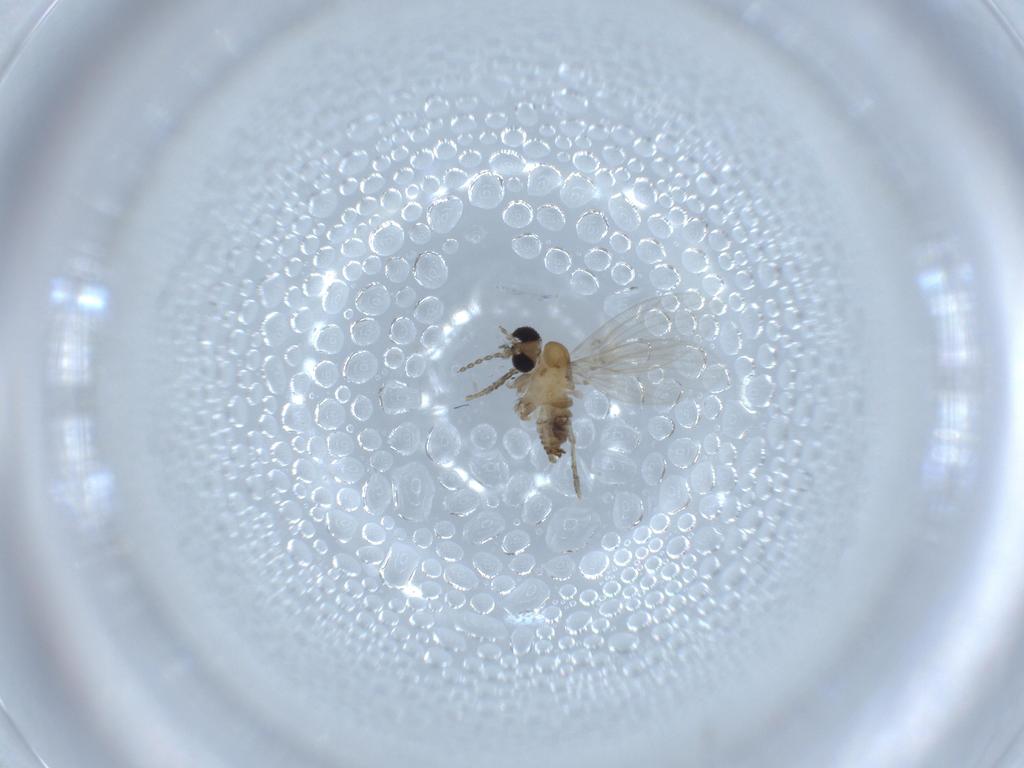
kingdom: Animalia
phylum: Arthropoda
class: Insecta
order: Diptera
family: Psychodidae
